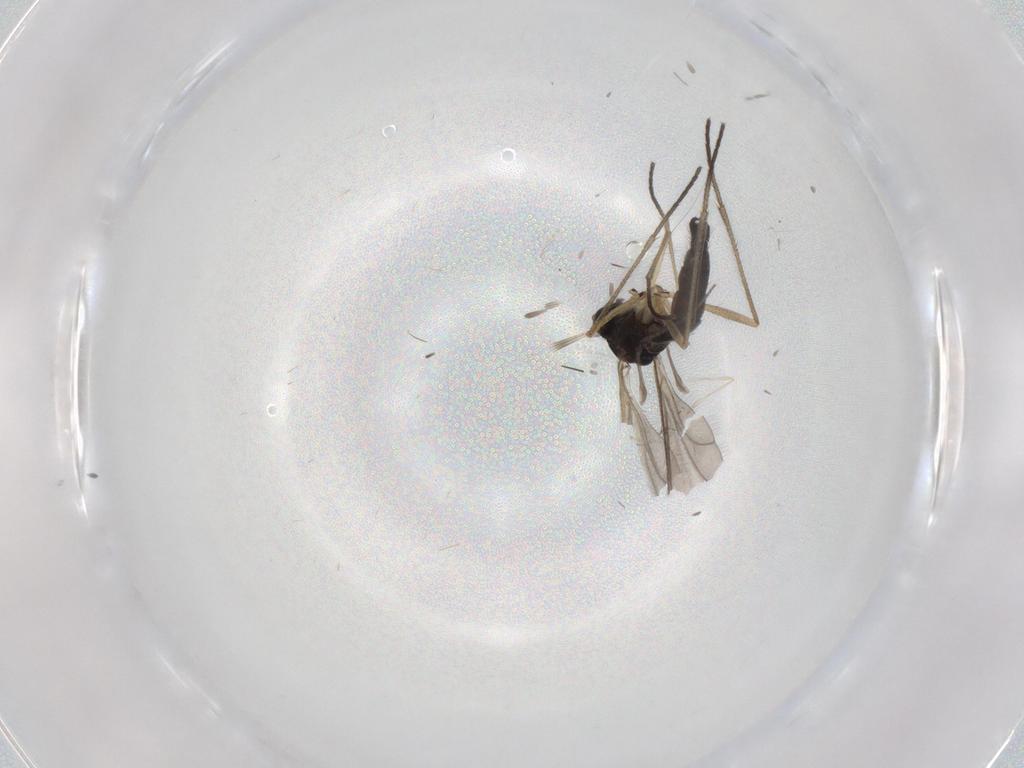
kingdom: Animalia
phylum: Arthropoda
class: Insecta
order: Diptera
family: Sciaridae
